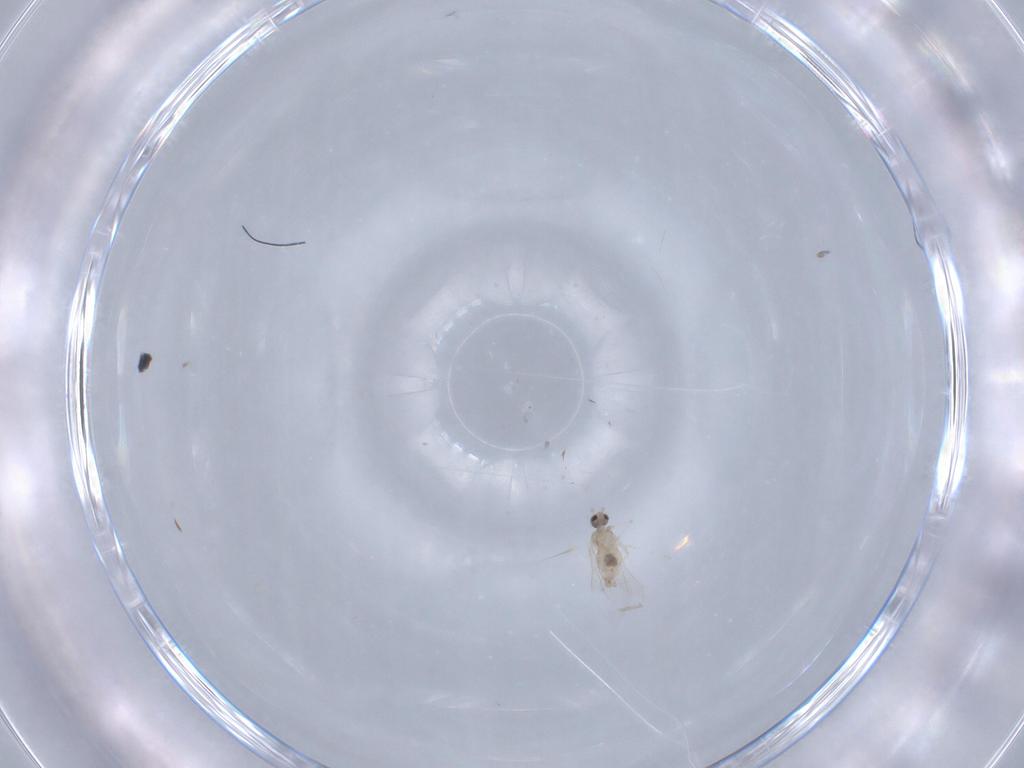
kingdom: Animalia
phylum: Arthropoda
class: Insecta
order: Diptera
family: Cecidomyiidae
